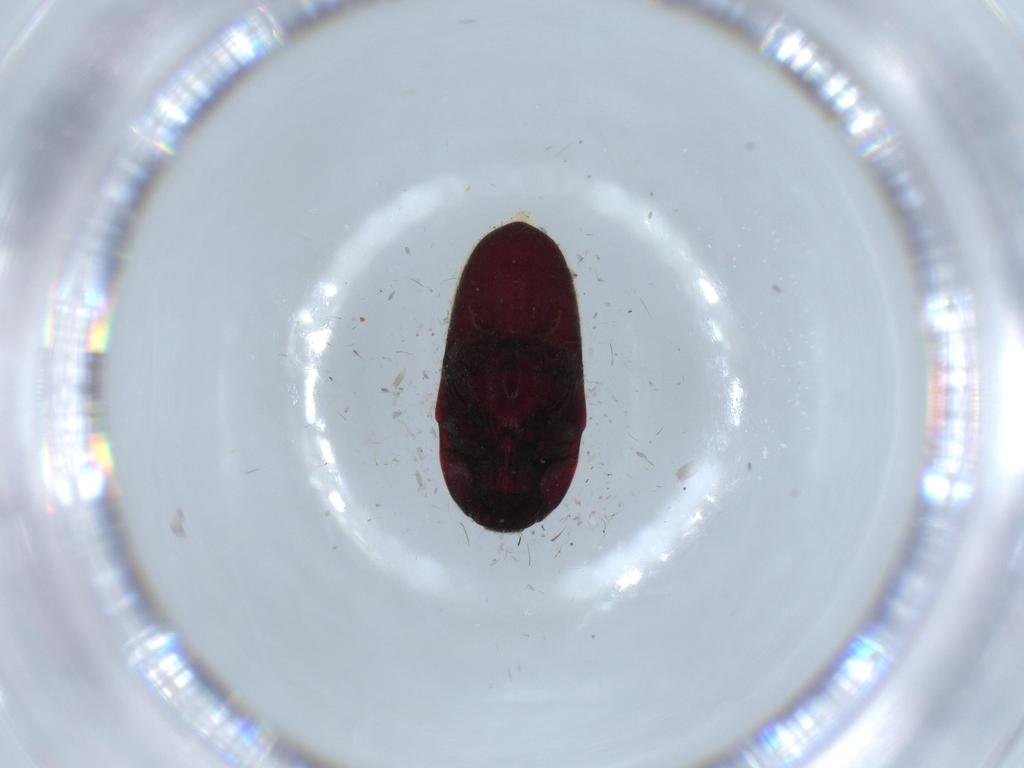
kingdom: Animalia
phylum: Arthropoda
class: Insecta
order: Coleoptera
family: Throscidae
